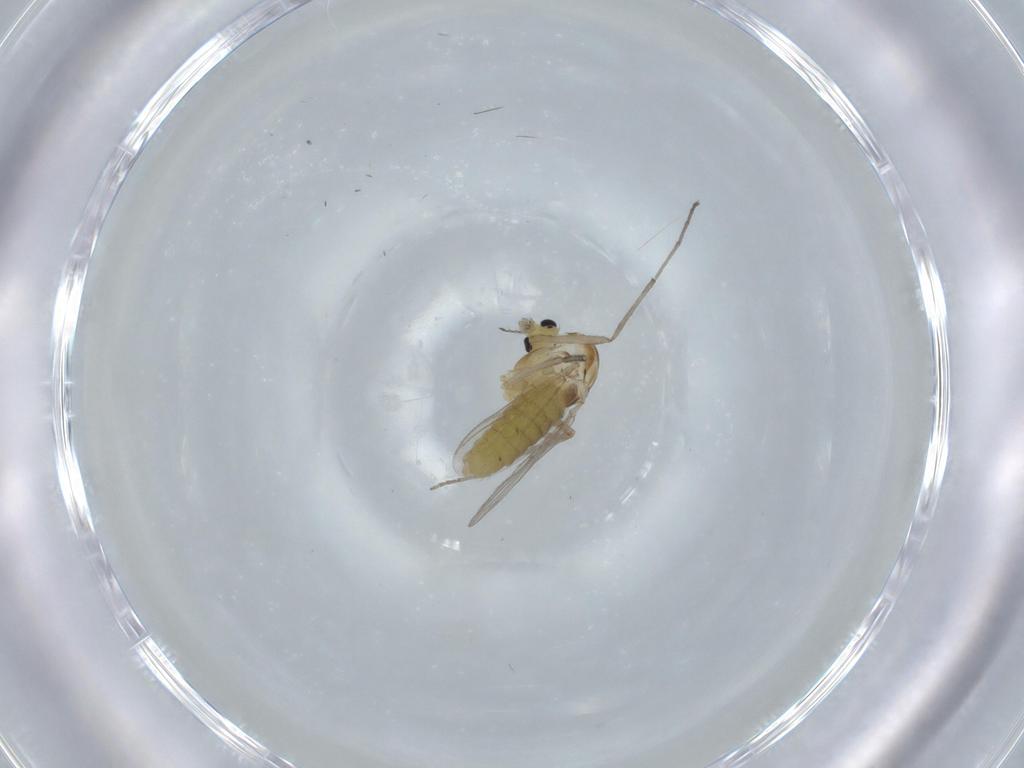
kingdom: Animalia
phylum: Arthropoda
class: Insecta
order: Diptera
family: Chironomidae
